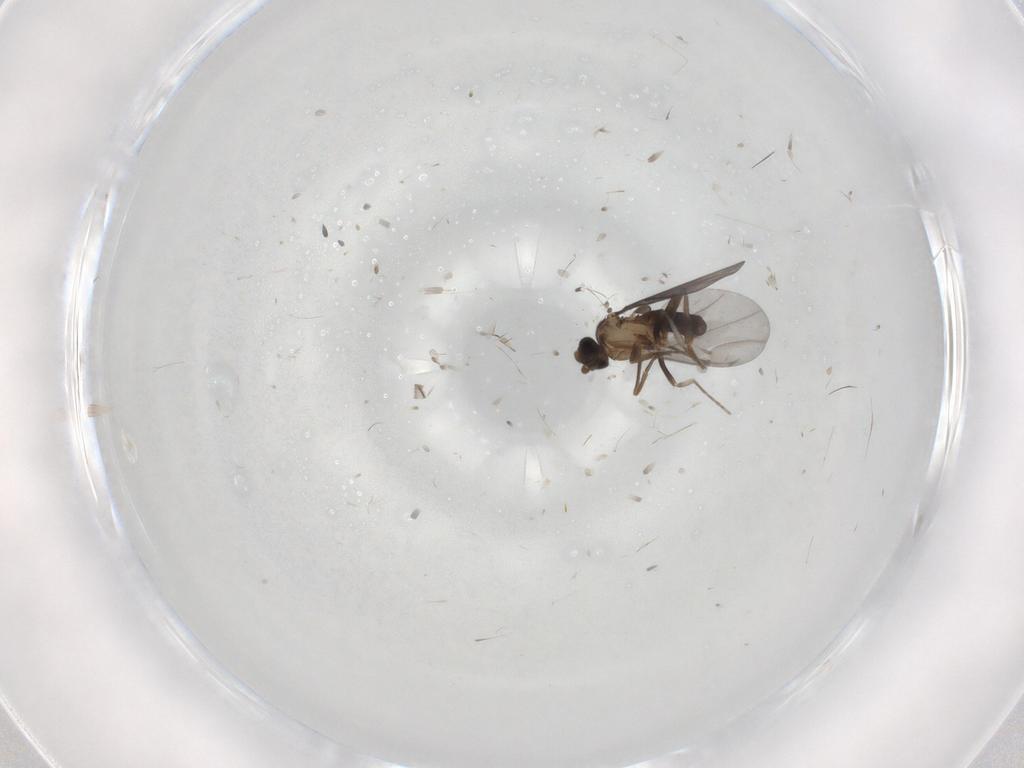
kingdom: Animalia
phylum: Arthropoda
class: Insecta
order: Diptera
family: Phoridae
